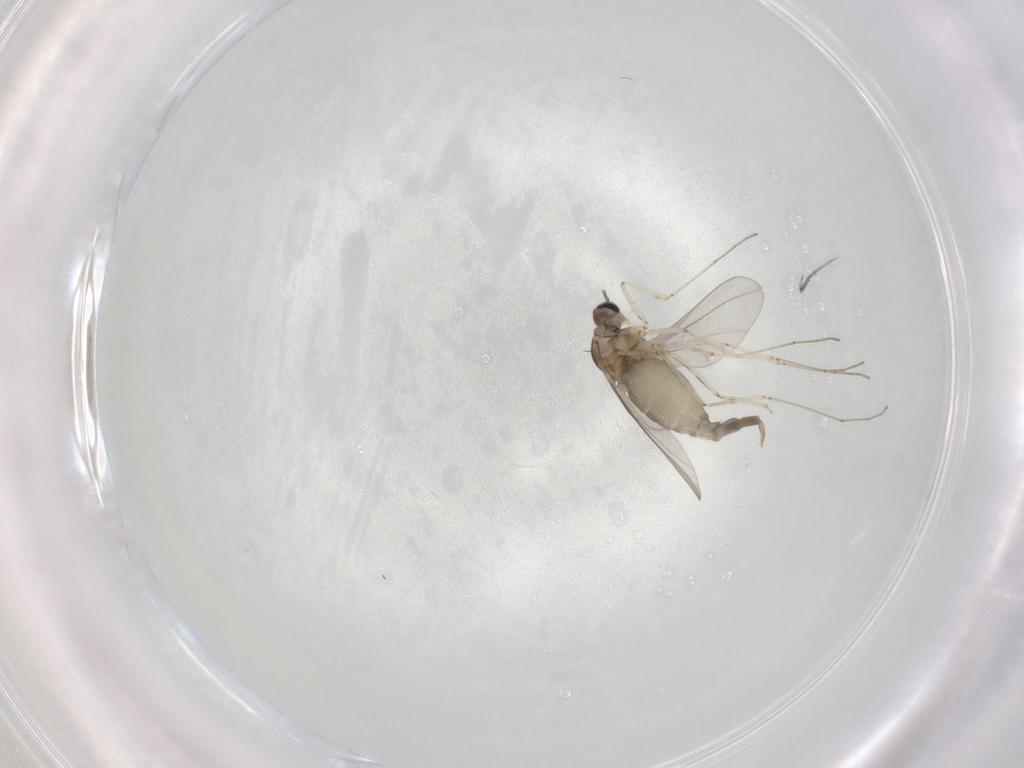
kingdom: Animalia
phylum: Arthropoda
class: Insecta
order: Diptera
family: Cecidomyiidae
